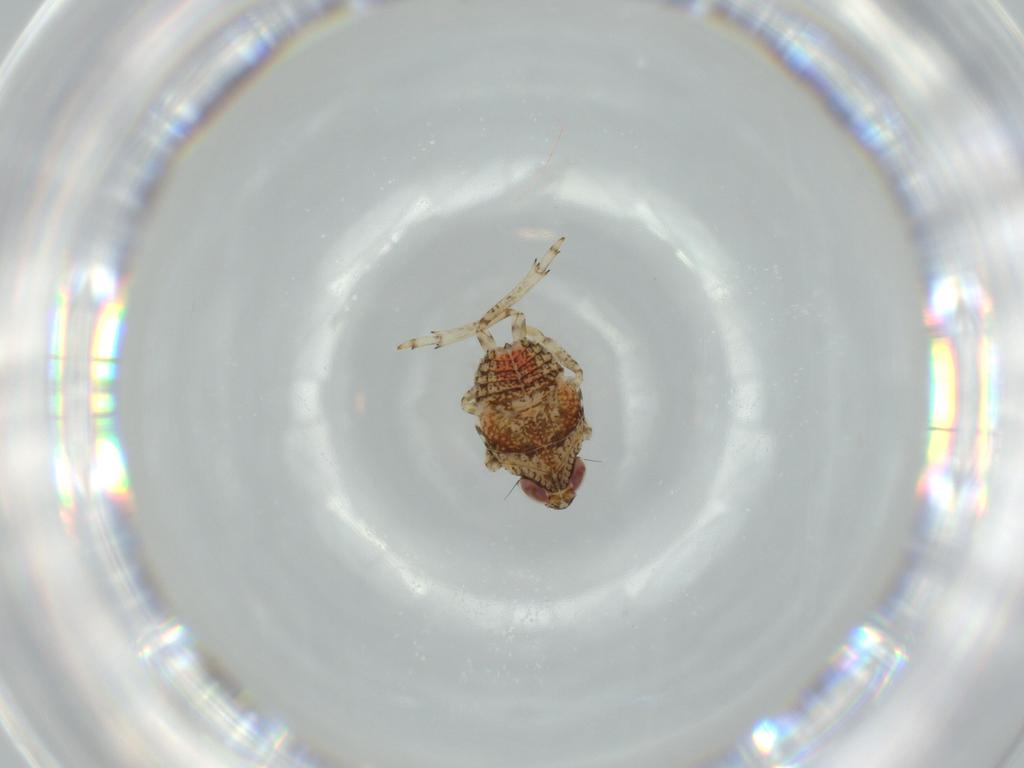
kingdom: Animalia
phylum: Arthropoda
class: Insecta
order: Hemiptera
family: Issidae
